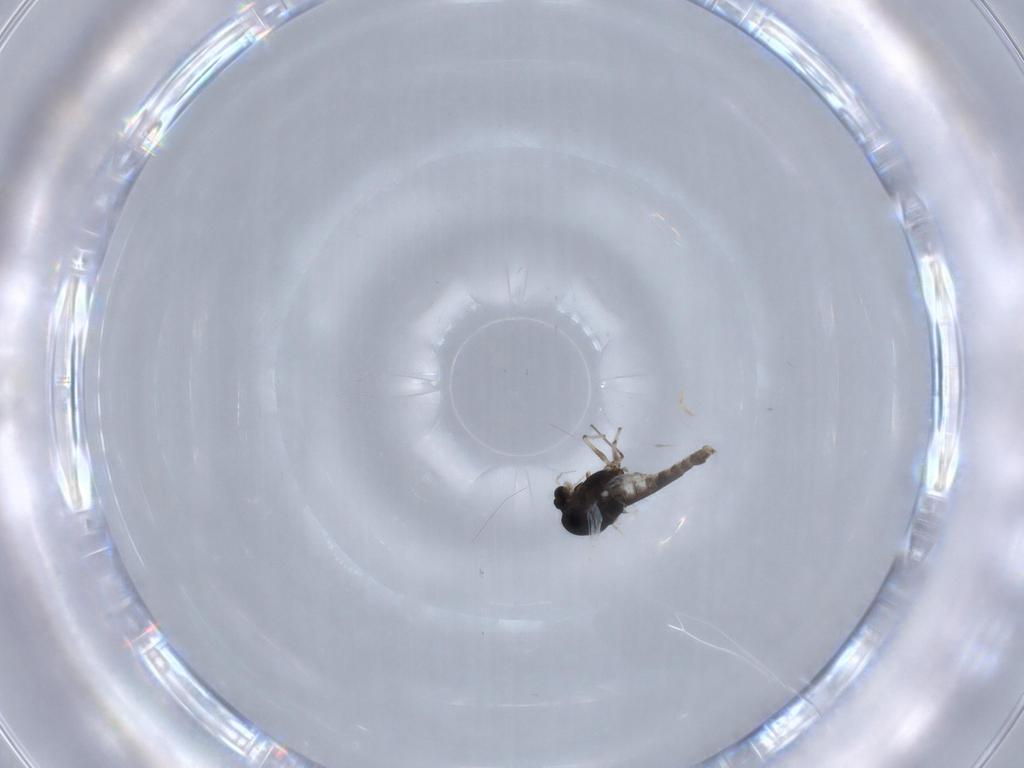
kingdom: Animalia
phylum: Arthropoda
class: Insecta
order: Diptera
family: Chironomidae
